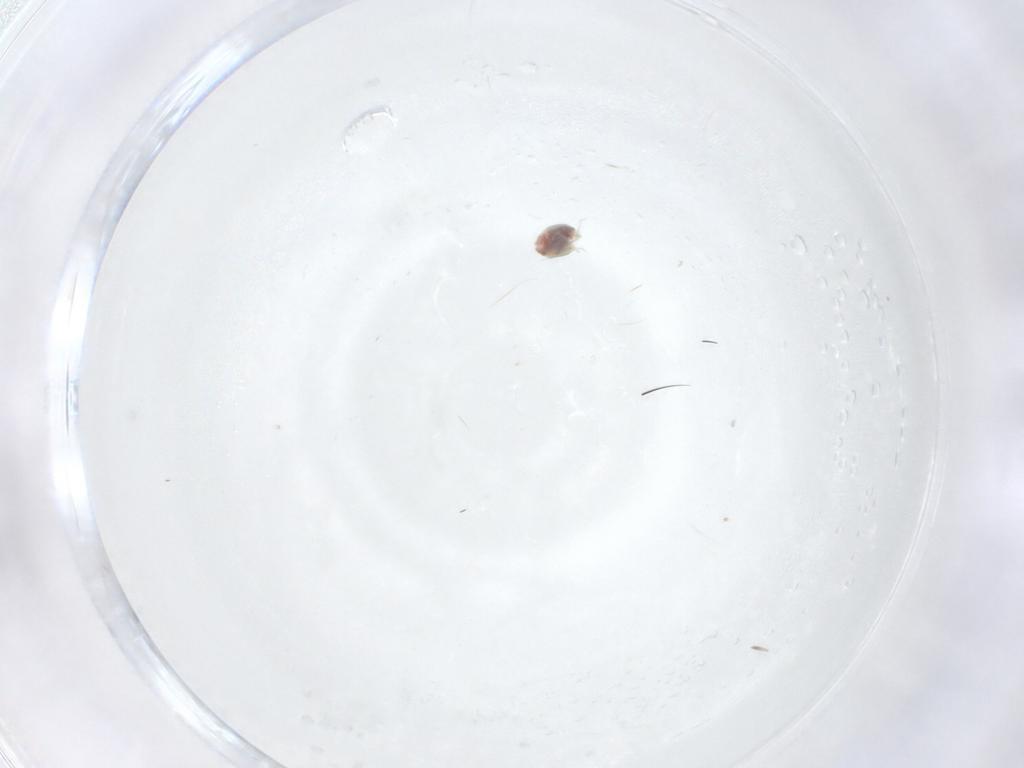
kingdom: Animalia
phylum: Arthropoda
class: Arachnida
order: Trombidiformes
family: Unionicolidae
